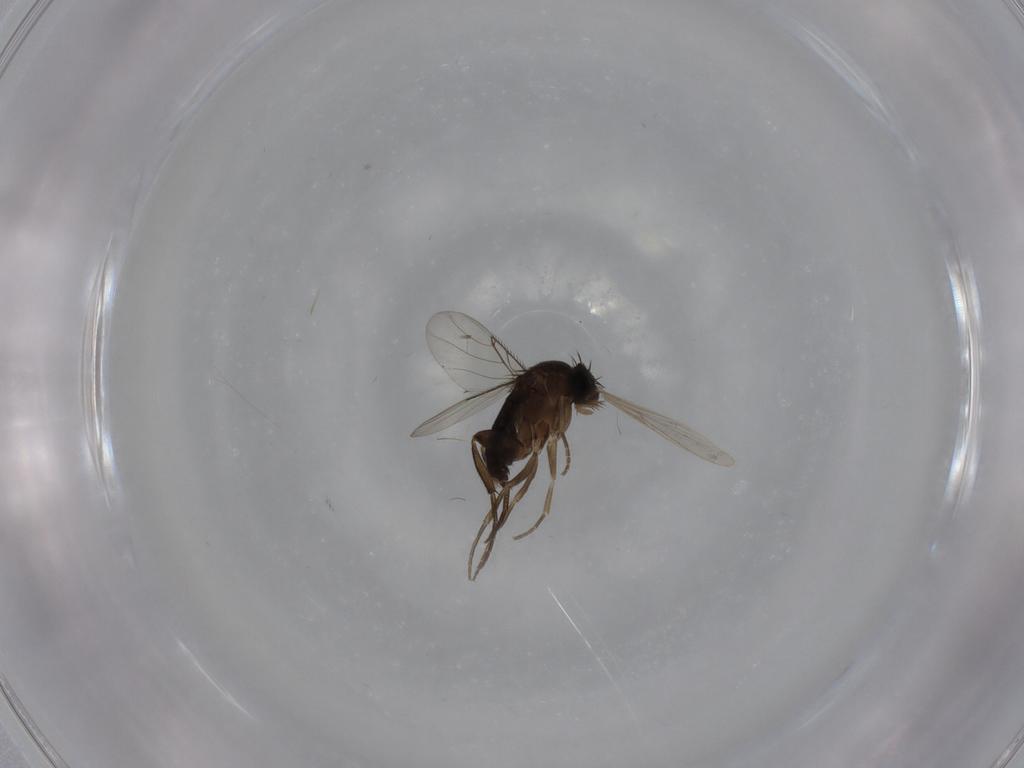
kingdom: Animalia
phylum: Arthropoda
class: Insecta
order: Diptera
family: Phoridae
